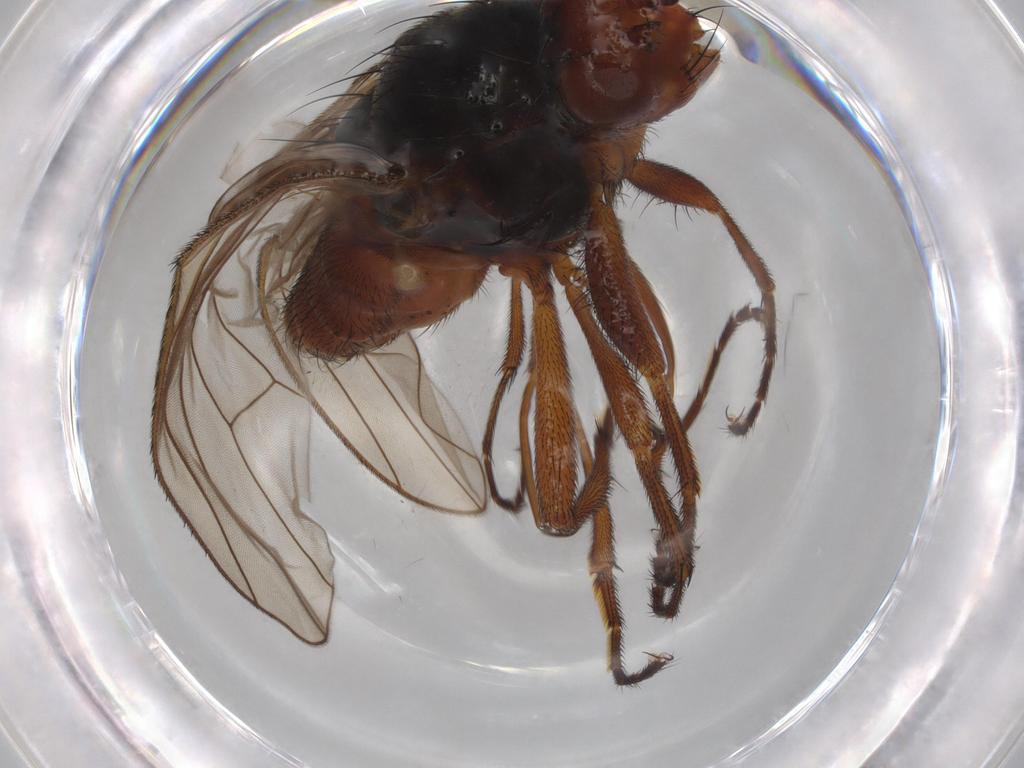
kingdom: Animalia
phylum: Arthropoda
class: Insecta
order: Diptera
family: Heleomyzidae
